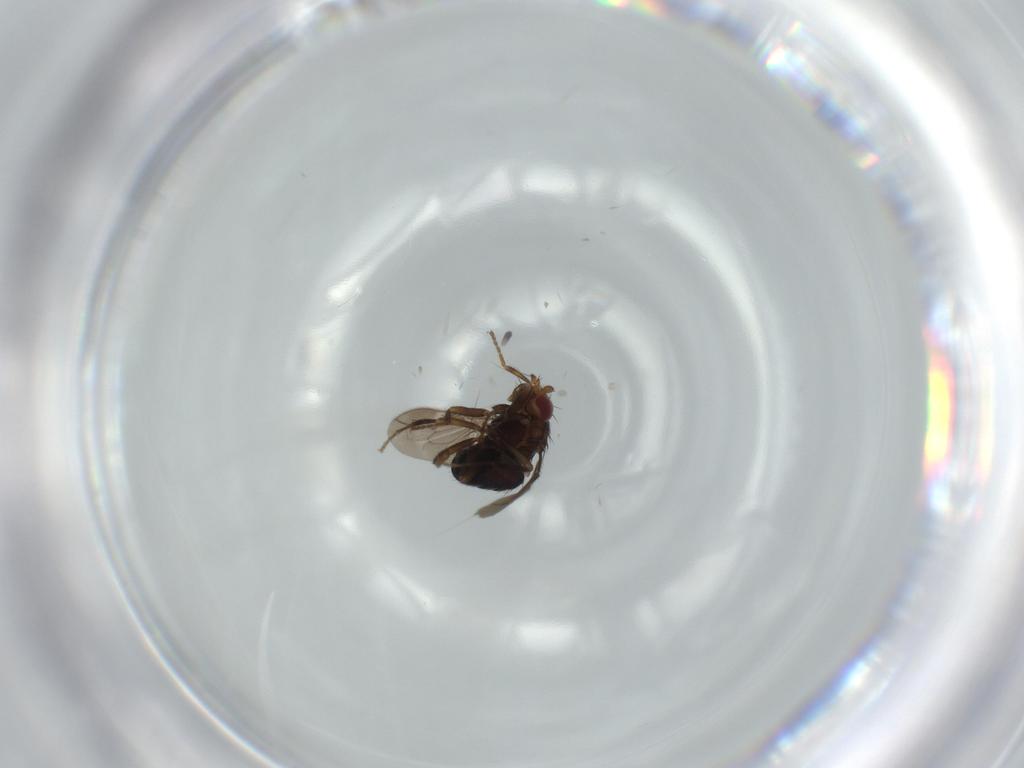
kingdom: Animalia
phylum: Arthropoda
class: Insecta
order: Diptera
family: Sphaeroceridae
